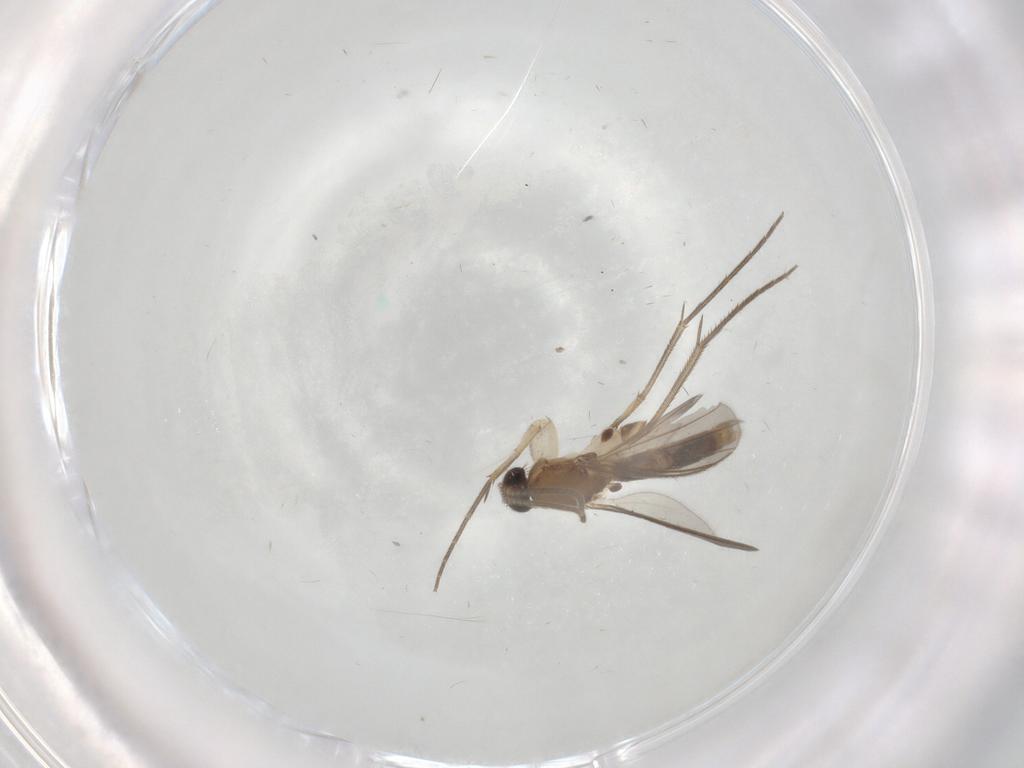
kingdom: Animalia
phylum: Arthropoda
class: Insecta
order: Diptera
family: Mycetophilidae
